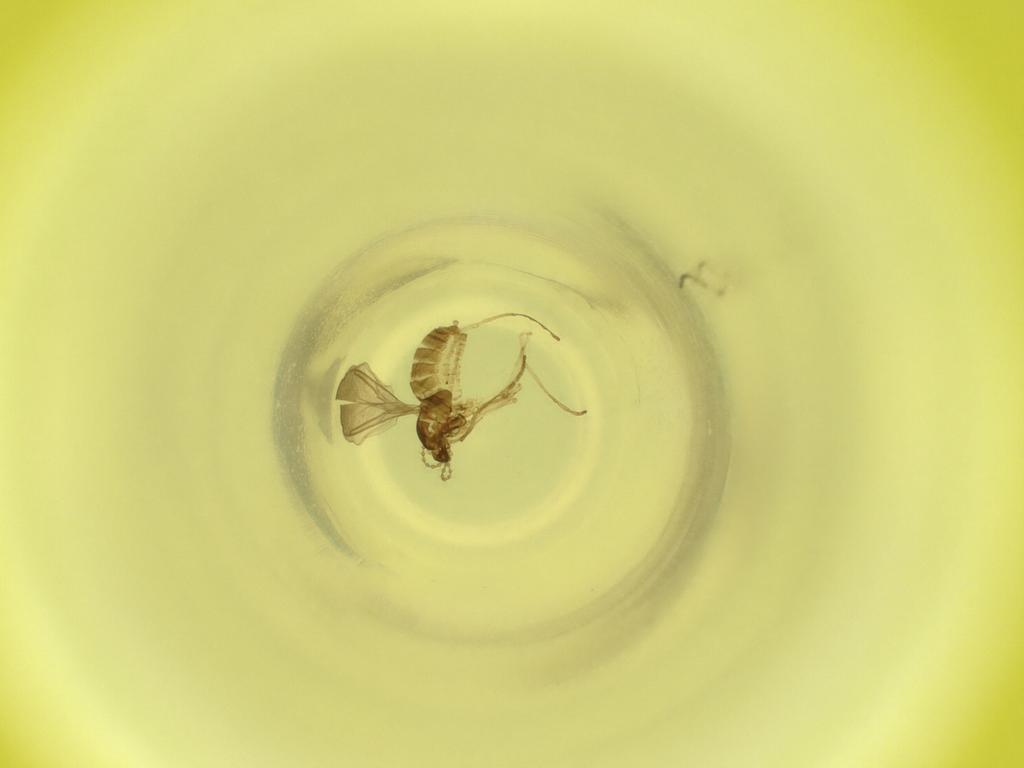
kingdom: Animalia
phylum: Arthropoda
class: Insecta
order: Diptera
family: Cecidomyiidae
